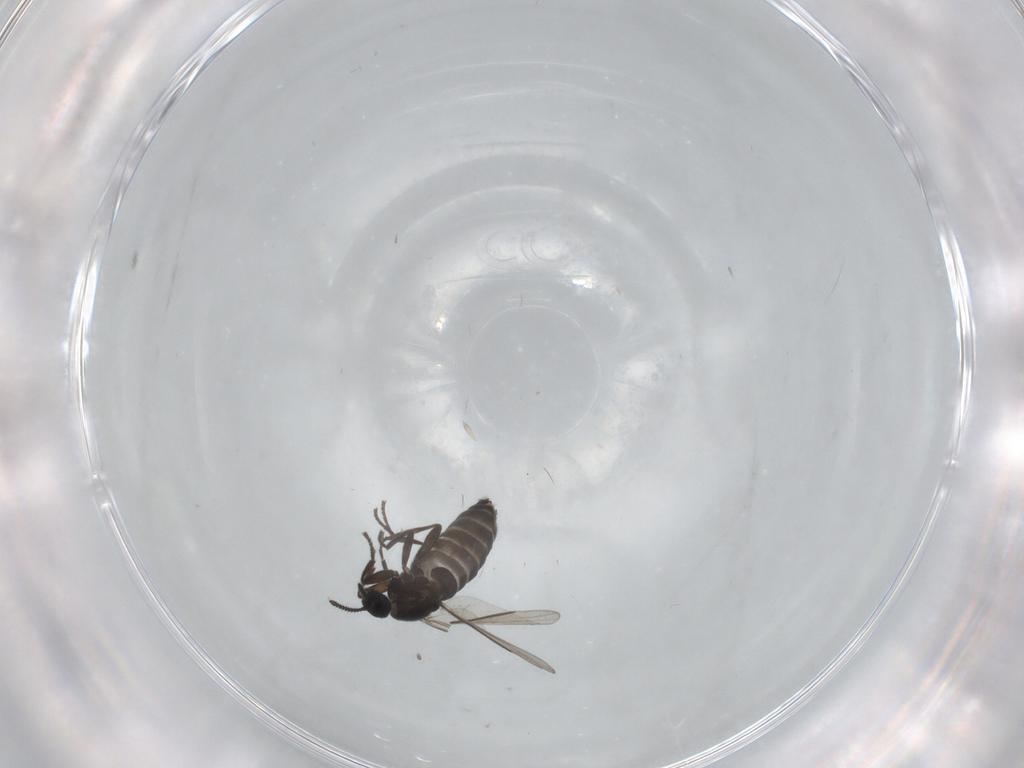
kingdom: Animalia
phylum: Arthropoda
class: Insecta
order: Diptera
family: Scatopsidae
